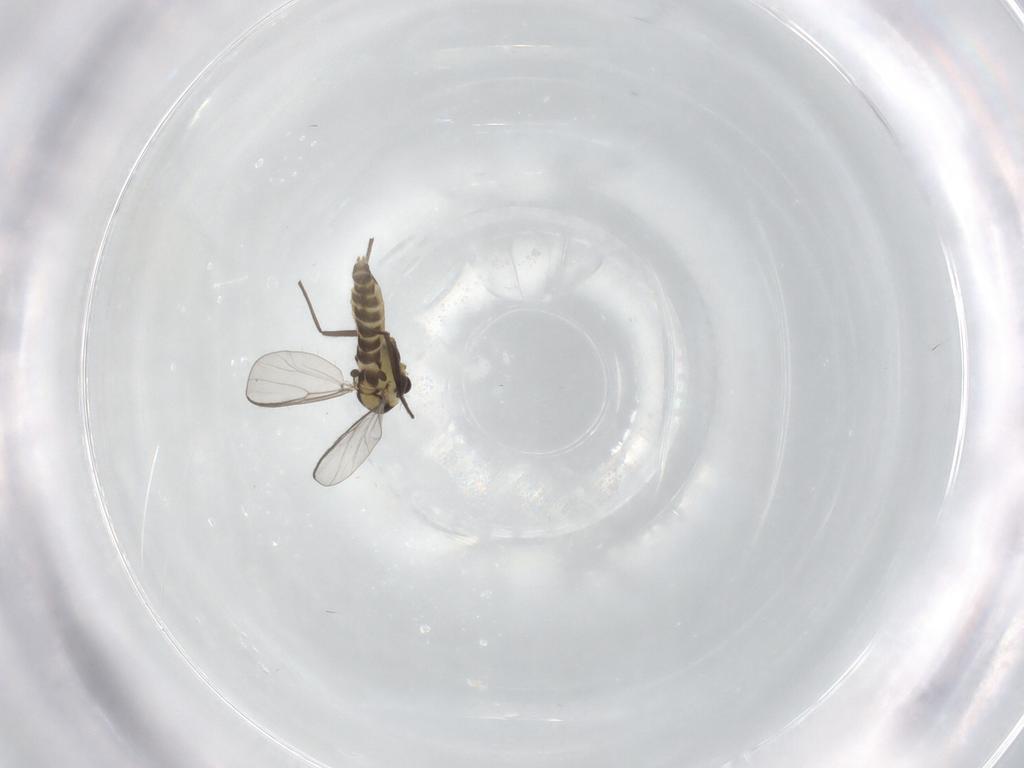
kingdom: Animalia
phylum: Arthropoda
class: Insecta
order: Diptera
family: Chironomidae
